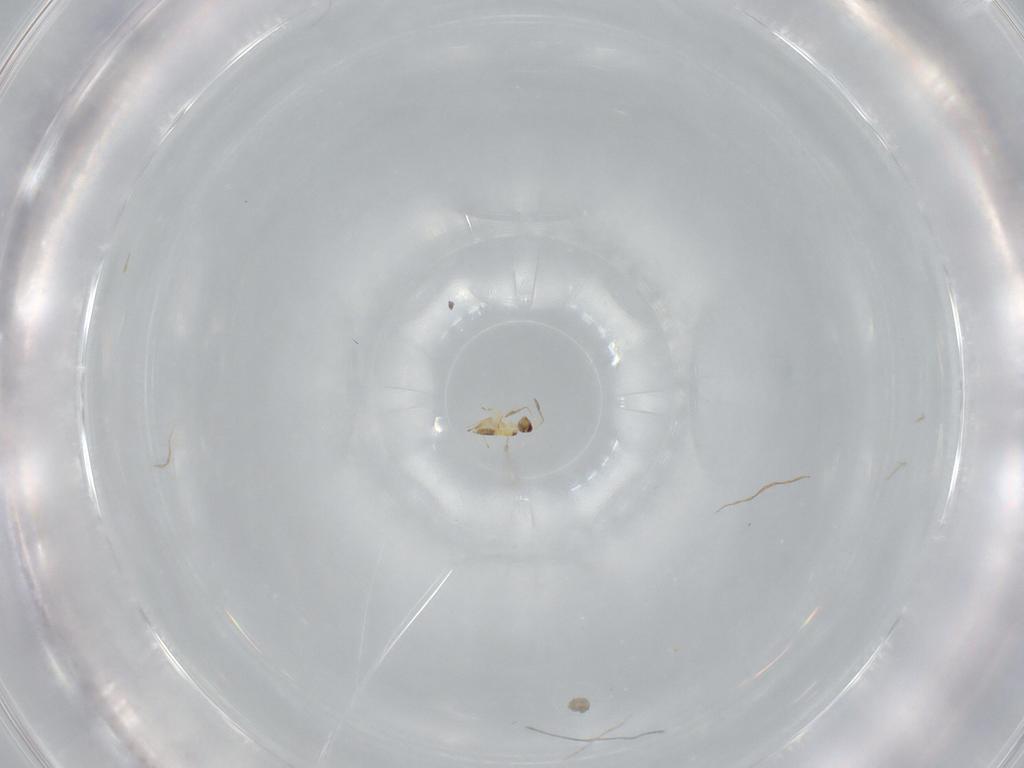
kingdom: Animalia
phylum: Arthropoda
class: Insecta
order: Hymenoptera
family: Mymaridae
